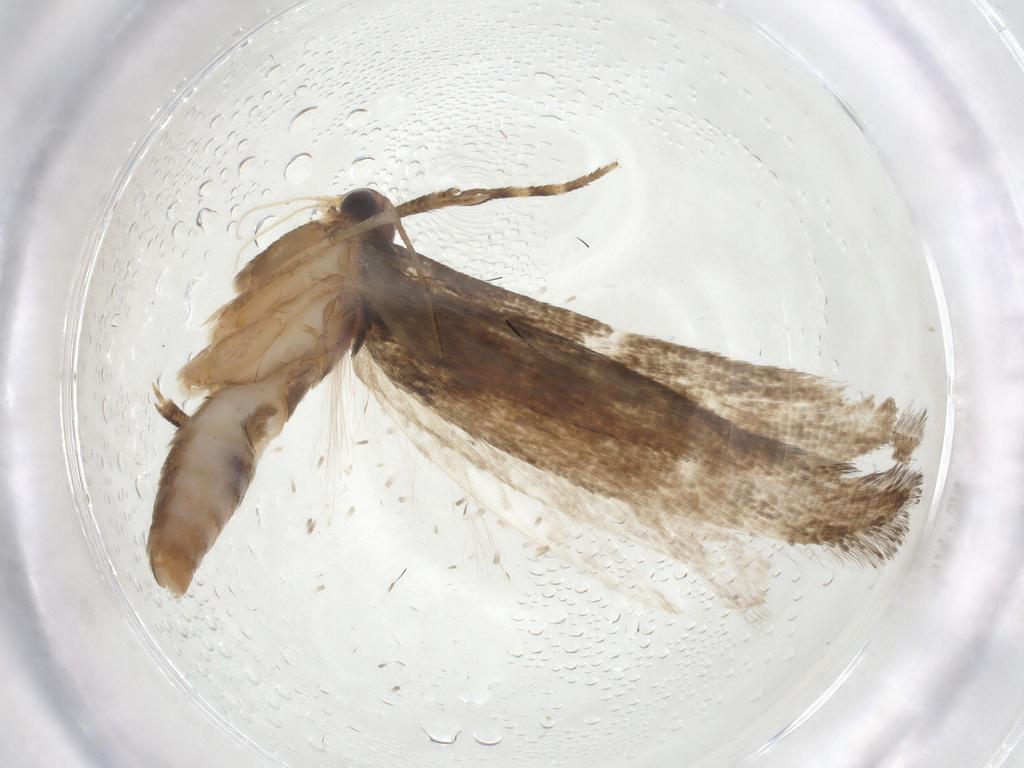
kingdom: Animalia
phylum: Arthropoda
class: Insecta
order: Lepidoptera
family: Gelechiidae
